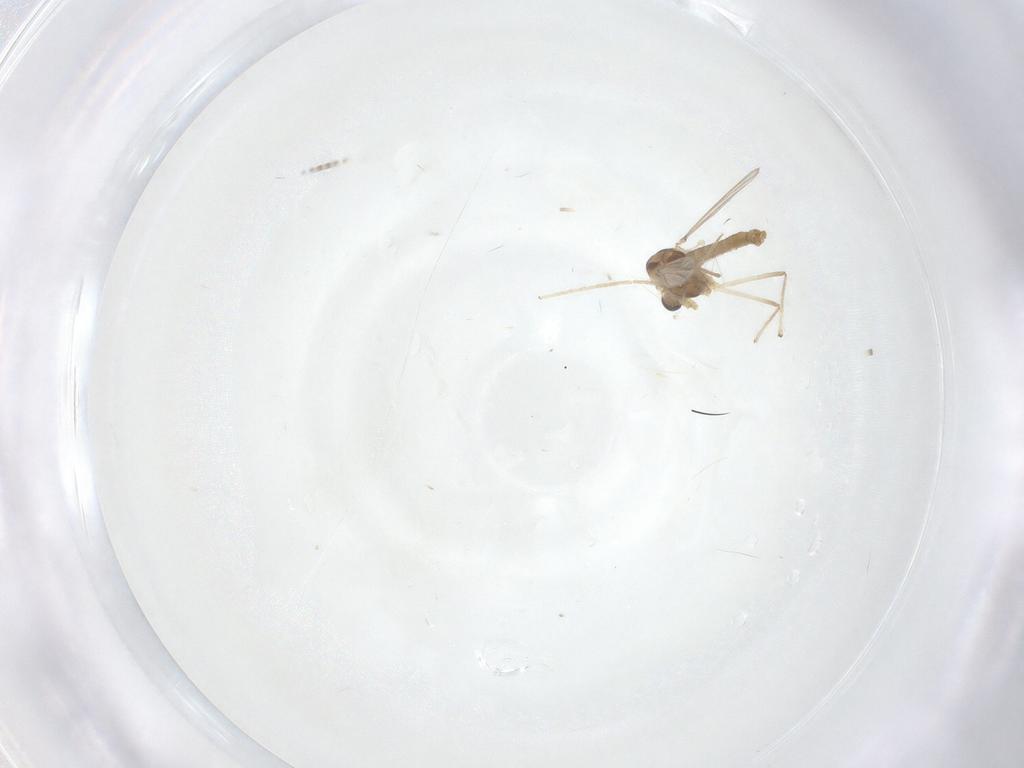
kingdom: Animalia
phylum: Arthropoda
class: Insecta
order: Diptera
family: Chironomidae
